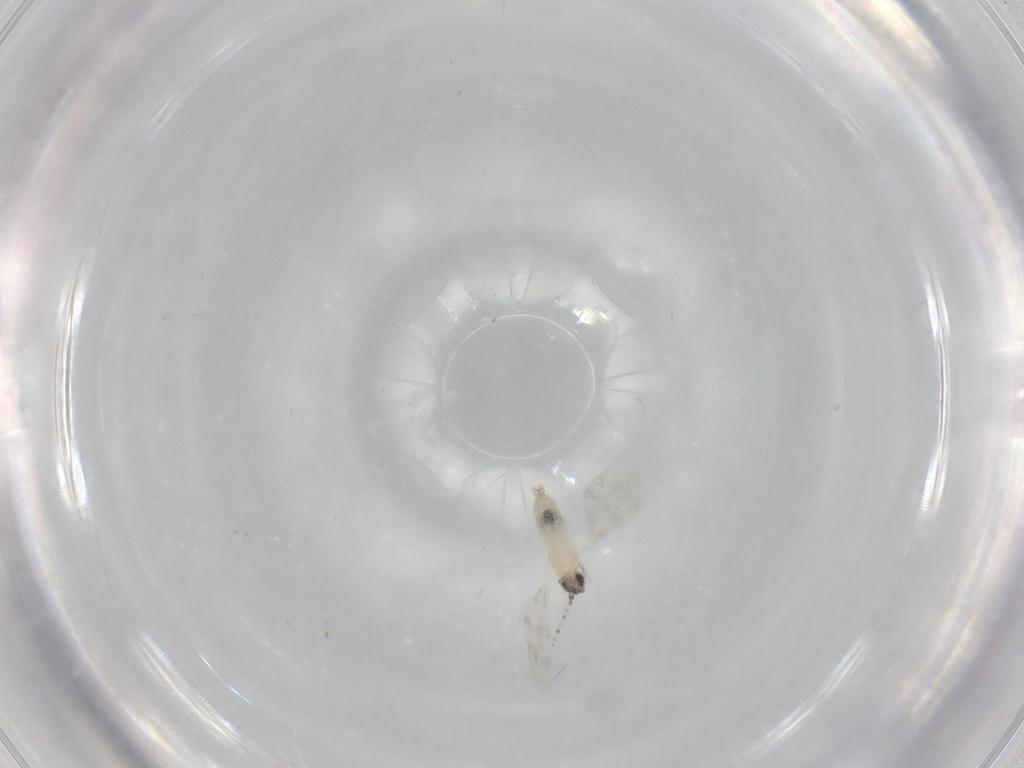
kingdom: Animalia
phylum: Arthropoda
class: Insecta
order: Diptera
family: Cecidomyiidae
